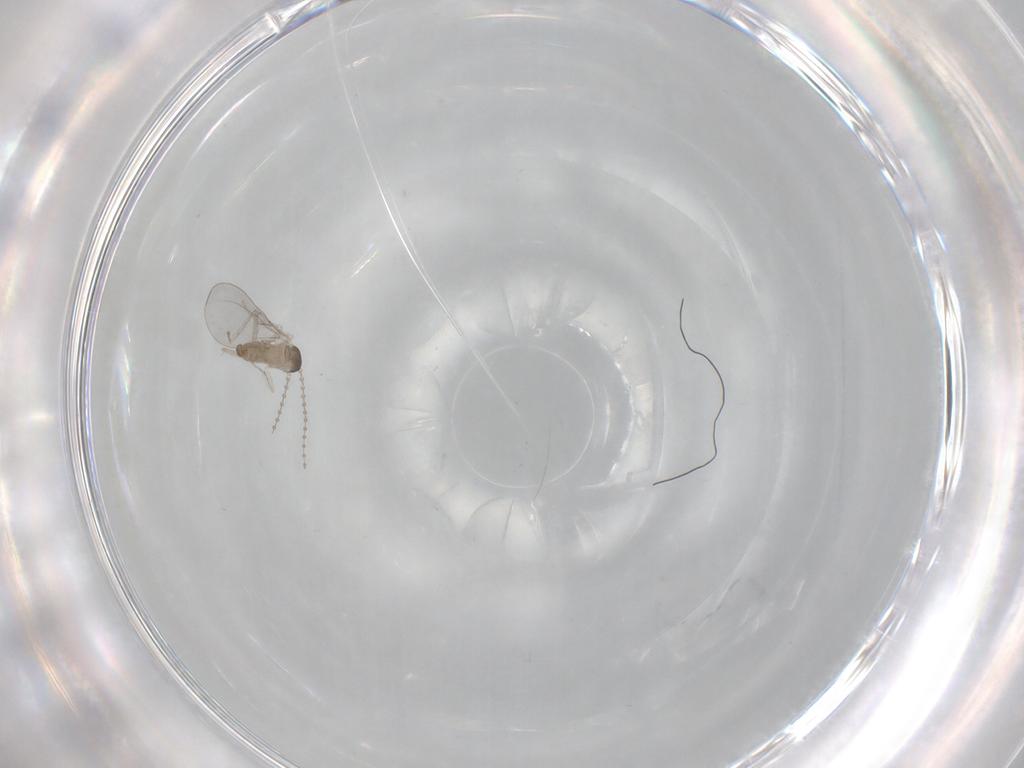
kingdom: Animalia
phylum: Arthropoda
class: Insecta
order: Diptera
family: Cecidomyiidae
